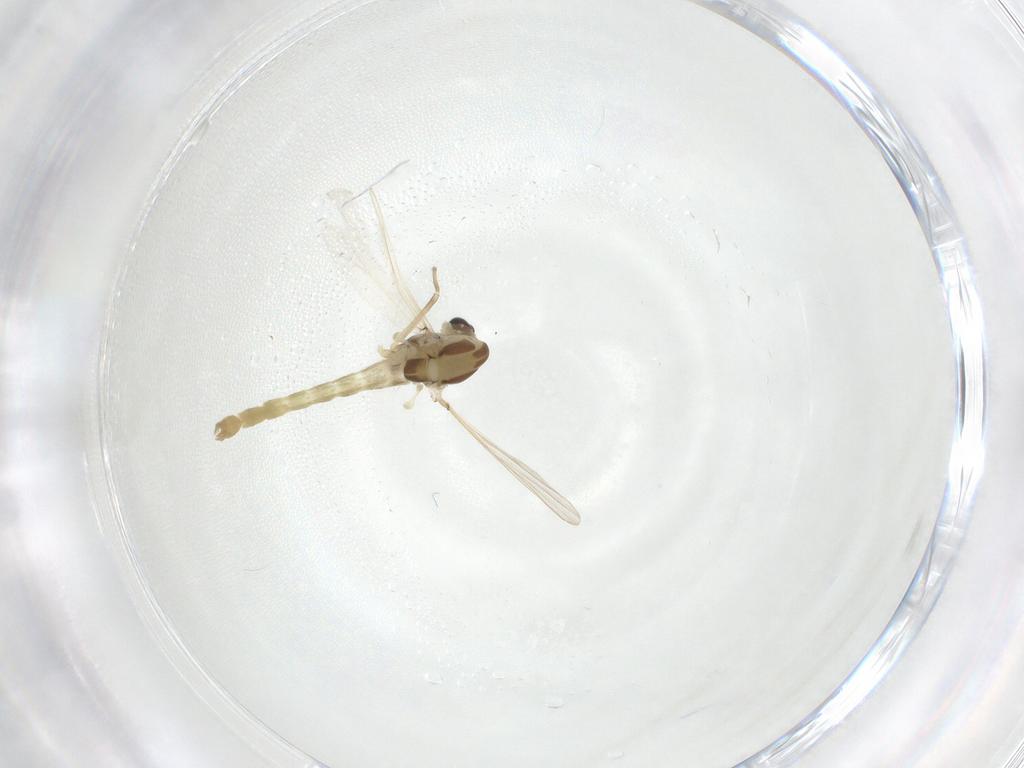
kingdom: Animalia
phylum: Arthropoda
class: Insecta
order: Diptera
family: Chironomidae
